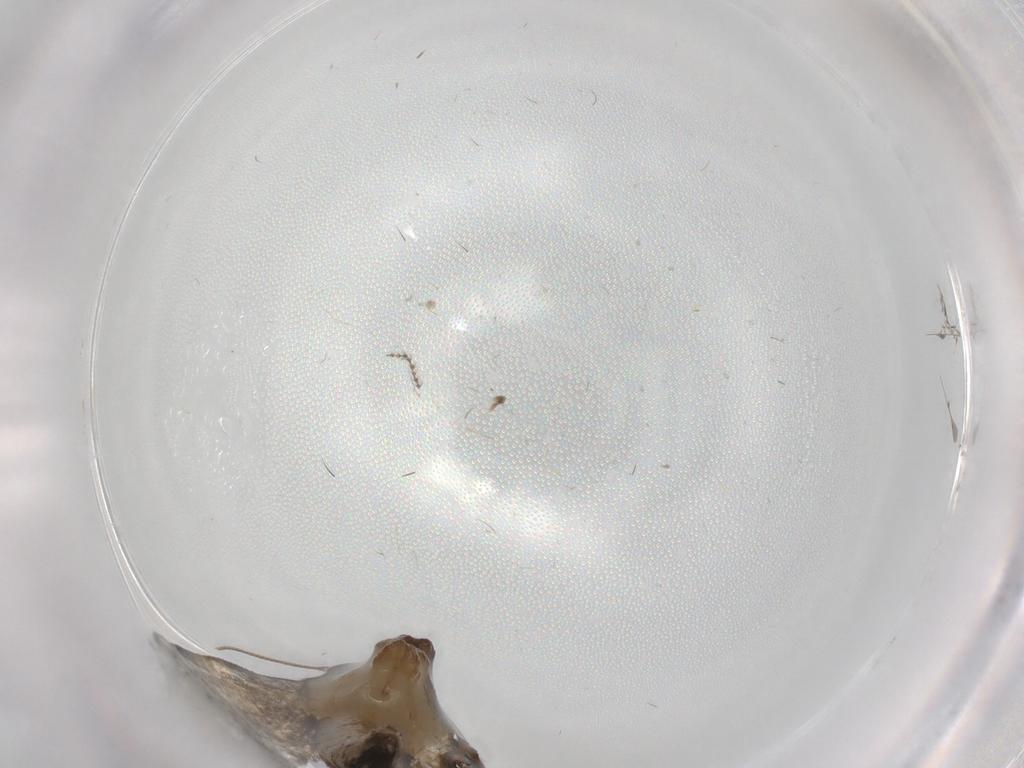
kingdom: Animalia
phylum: Arthropoda
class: Insecta
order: Lepidoptera
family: Psychidae
